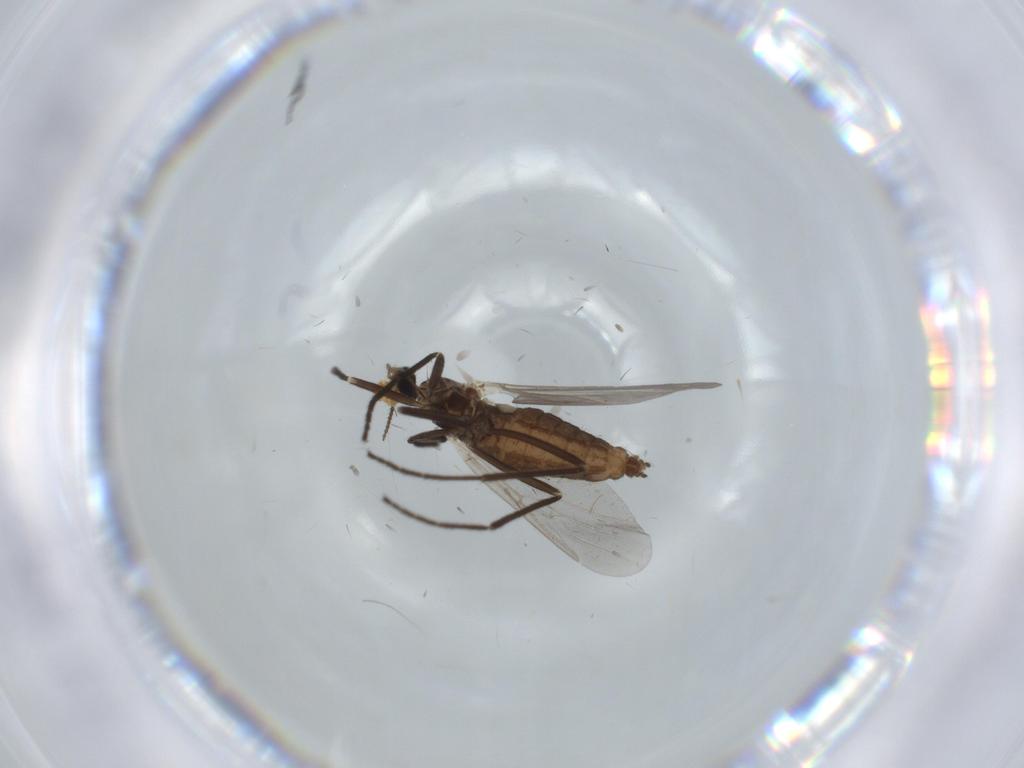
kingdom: Animalia
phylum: Arthropoda
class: Insecta
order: Diptera
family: Cecidomyiidae
